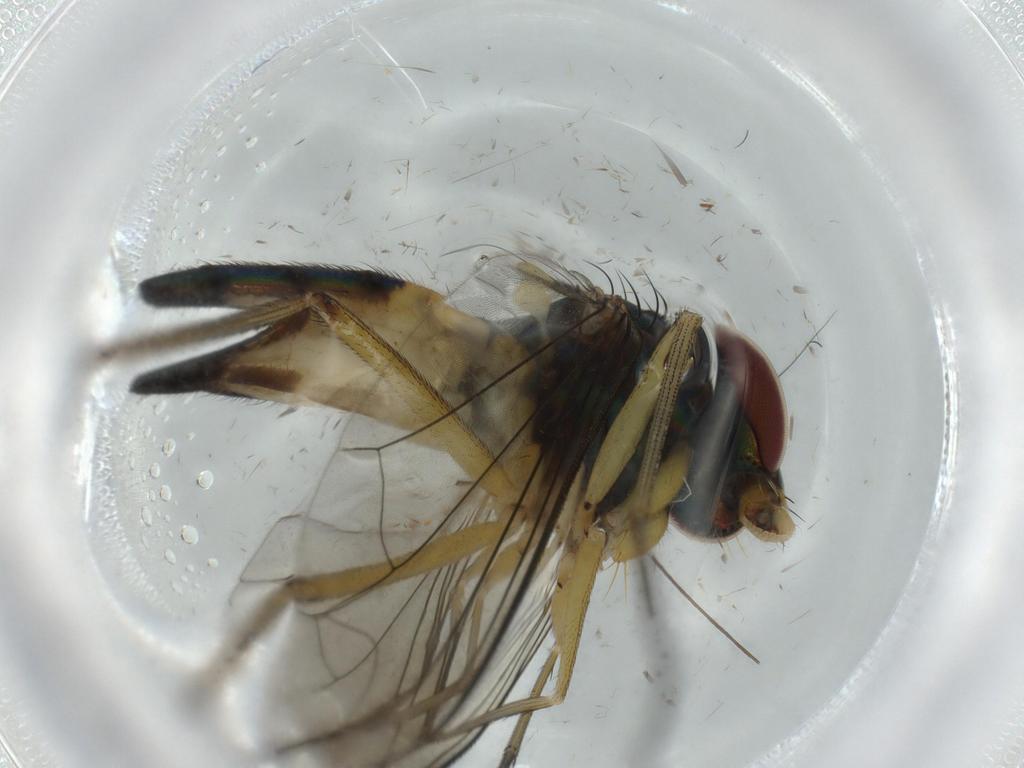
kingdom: Animalia
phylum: Arthropoda
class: Insecta
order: Diptera
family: Dolichopodidae
